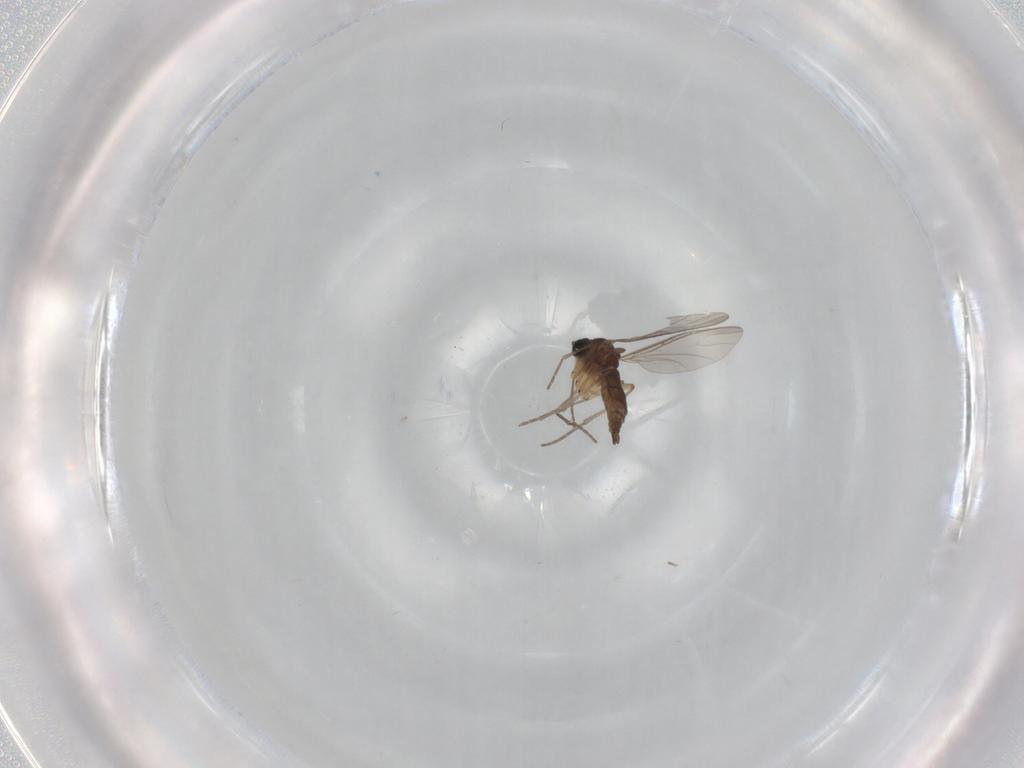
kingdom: Animalia
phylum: Arthropoda
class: Insecta
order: Diptera
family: Sciaridae
